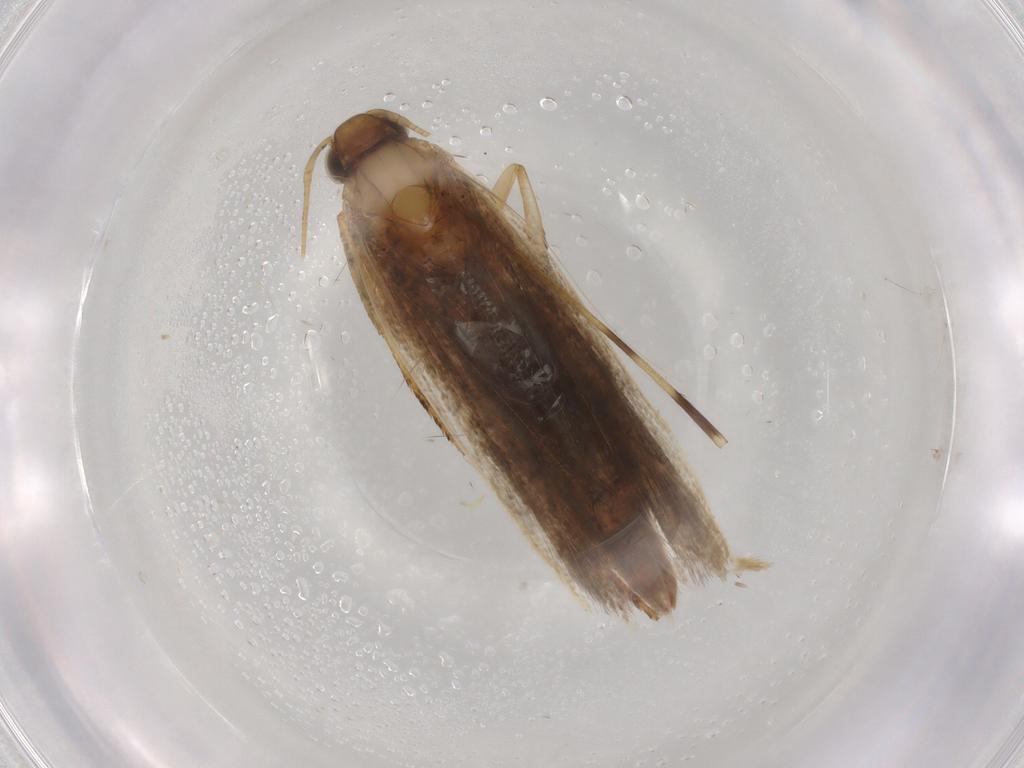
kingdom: Animalia
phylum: Arthropoda
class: Insecta
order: Lepidoptera
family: Gelechiidae
